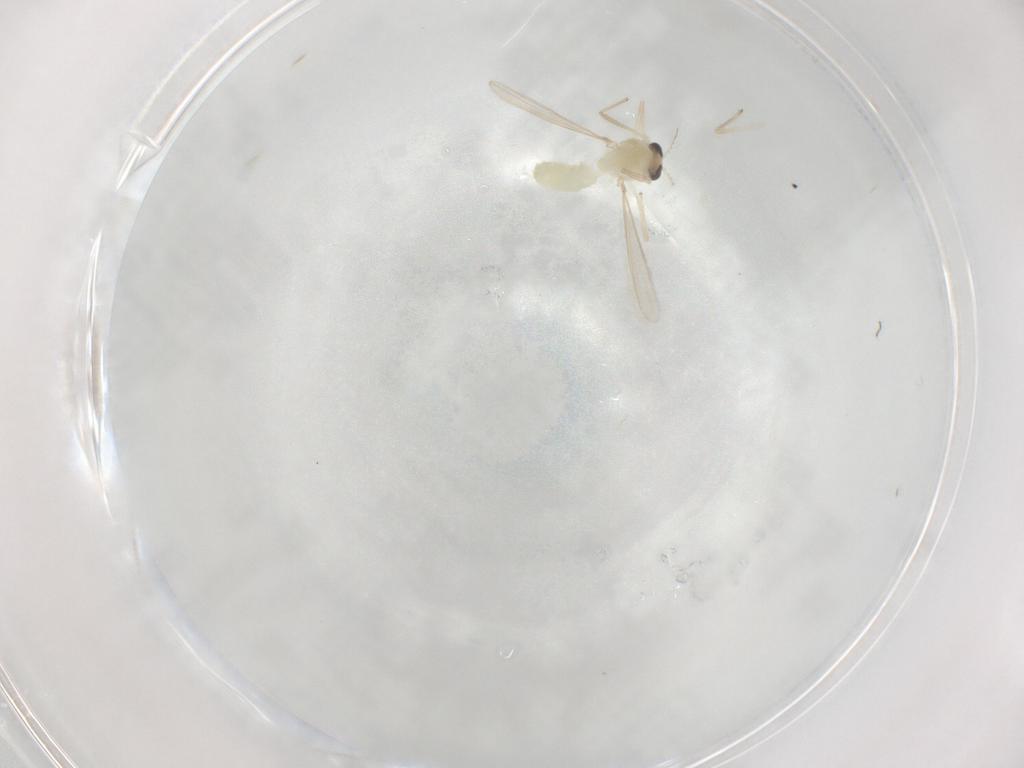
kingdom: Animalia
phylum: Arthropoda
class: Insecta
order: Diptera
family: Chironomidae
